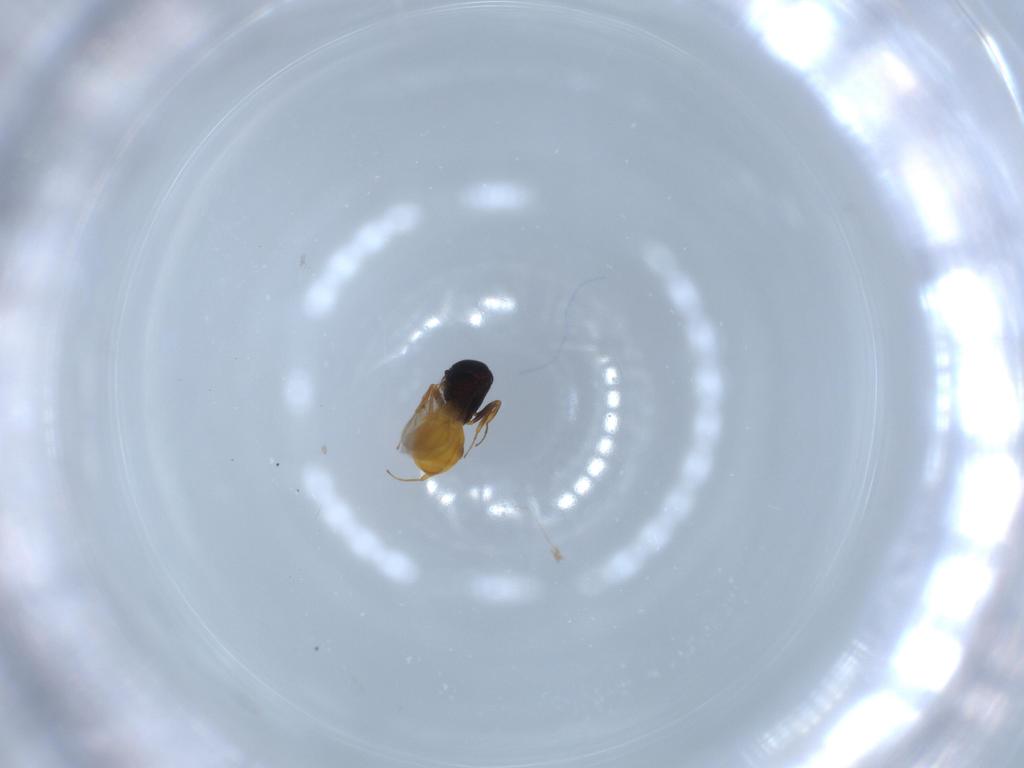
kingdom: Animalia
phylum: Arthropoda
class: Insecta
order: Hymenoptera
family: Scelionidae
